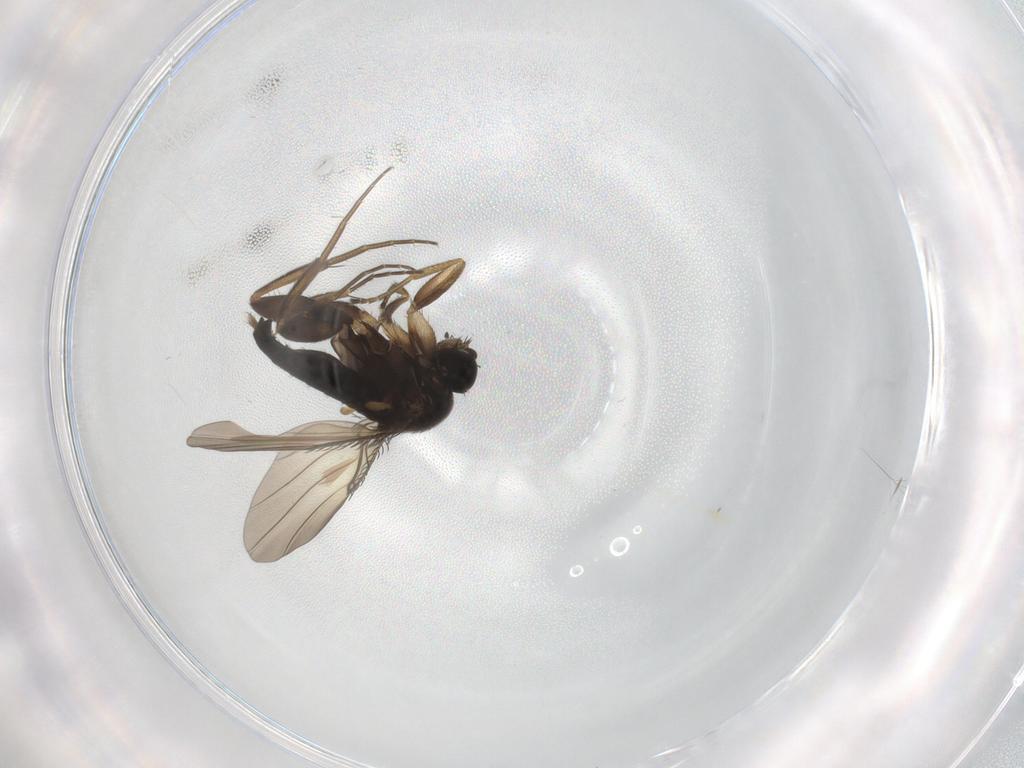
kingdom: Animalia
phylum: Arthropoda
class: Insecta
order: Diptera
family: Phoridae
